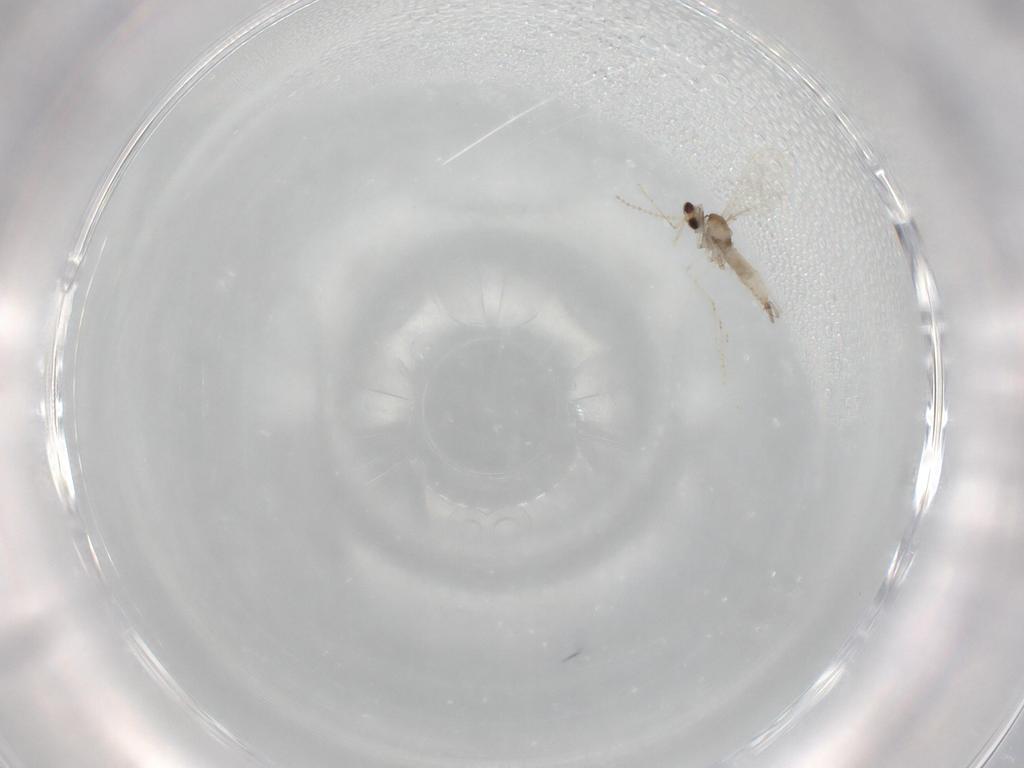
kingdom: Animalia
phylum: Arthropoda
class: Insecta
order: Diptera
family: Cecidomyiidae
